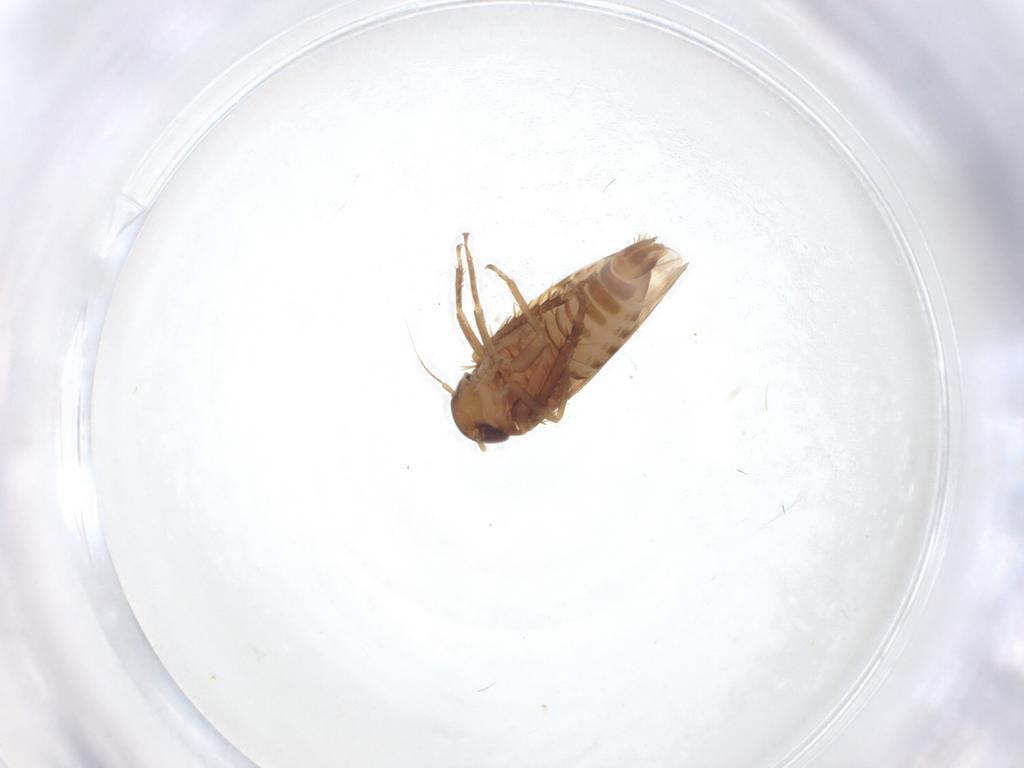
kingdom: Animalia
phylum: Arthropoda
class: Insecta
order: Hemiptera
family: Cicadellidae
